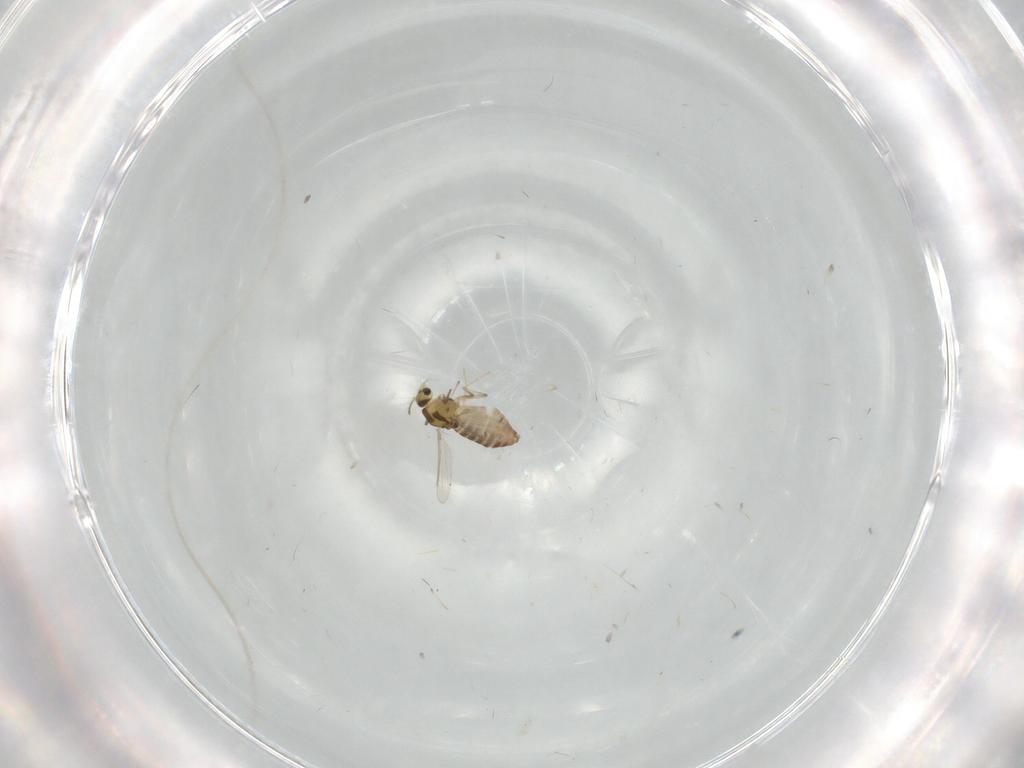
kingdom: Animalia
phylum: Arthropoda
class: Insecta
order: Diptera
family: Chironomidae
